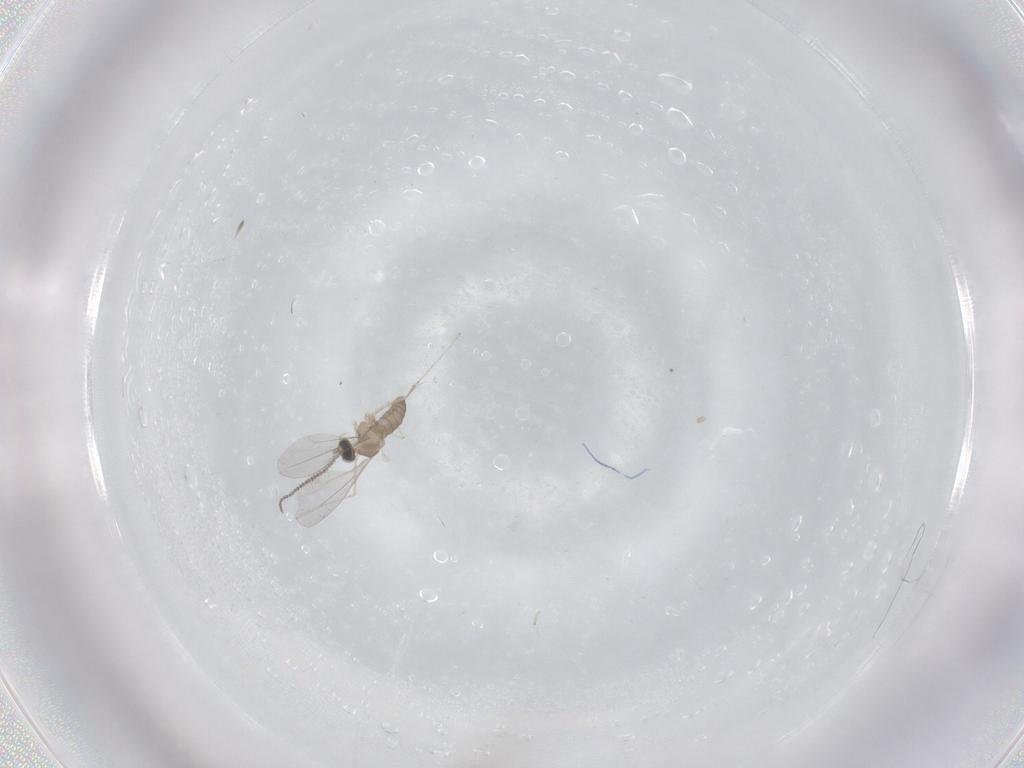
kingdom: Animalia
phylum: Arthropoda
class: Insecta
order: Diptera
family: Cecidomyiidae
